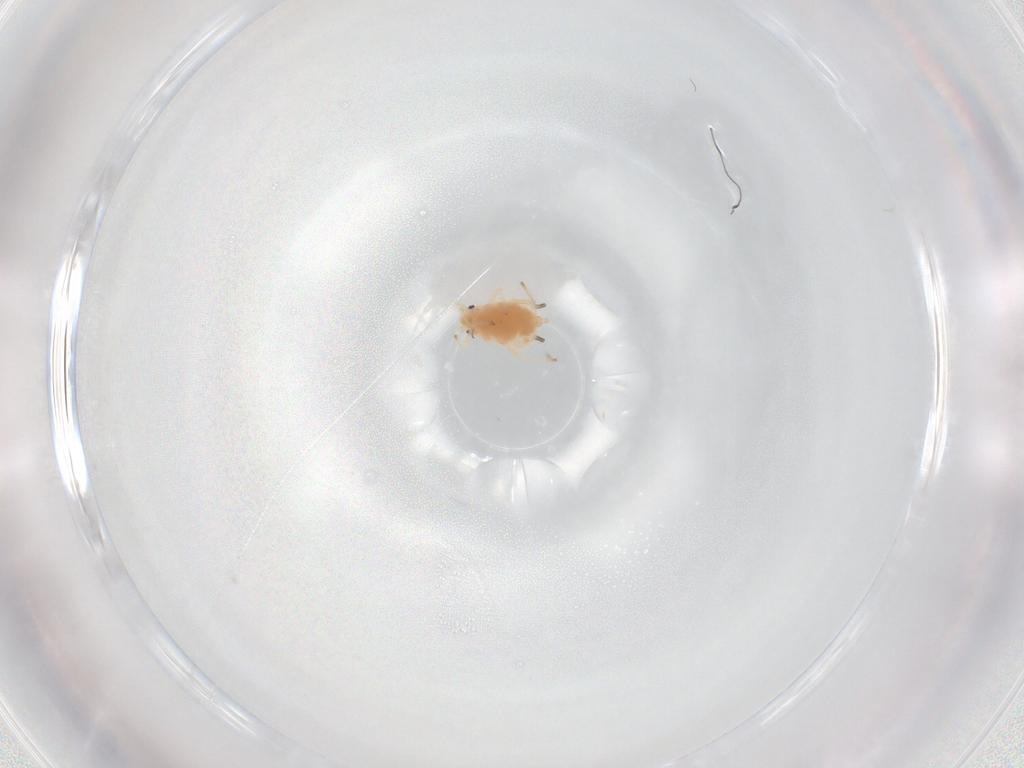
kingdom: Animalia
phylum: Arthropoda
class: Insecta
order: Hemiptera
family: Aphididae
